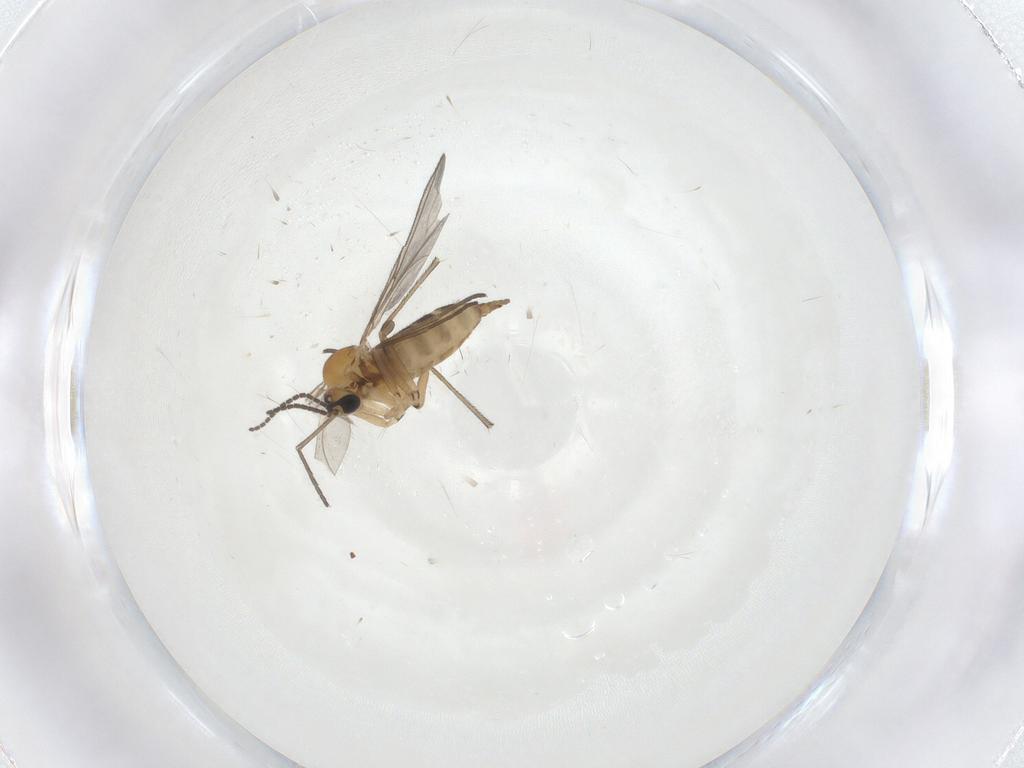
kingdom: Animalia
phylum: Arthropoda
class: Insecta
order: Diptera
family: Sciaridae
